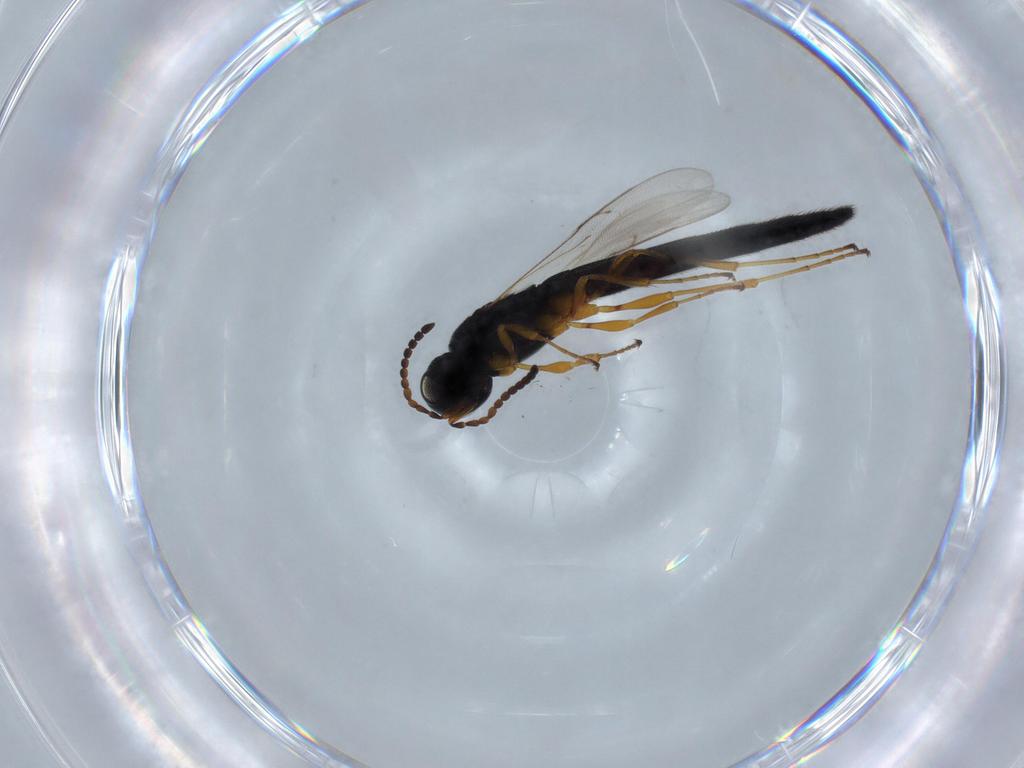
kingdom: Animalia
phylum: Arthropoda
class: Insecta
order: Hymenoptera
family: Scelionidae
